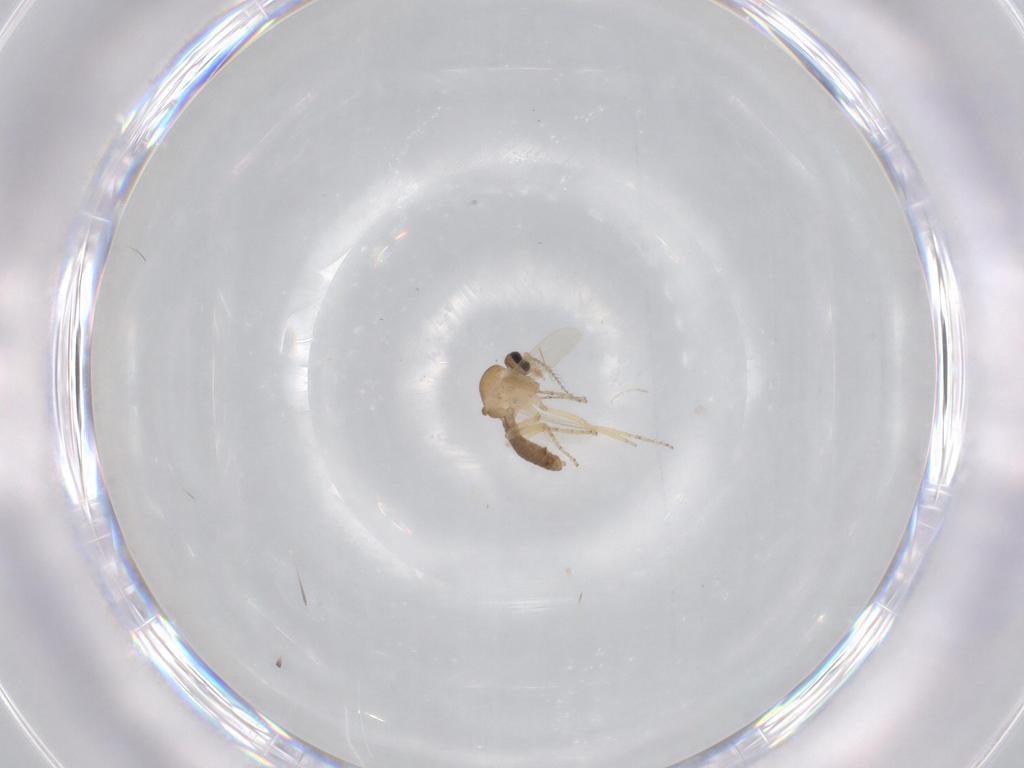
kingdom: Animalia
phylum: Arthropoda
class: Insecta
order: Diptera
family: Ceratopogonidae
